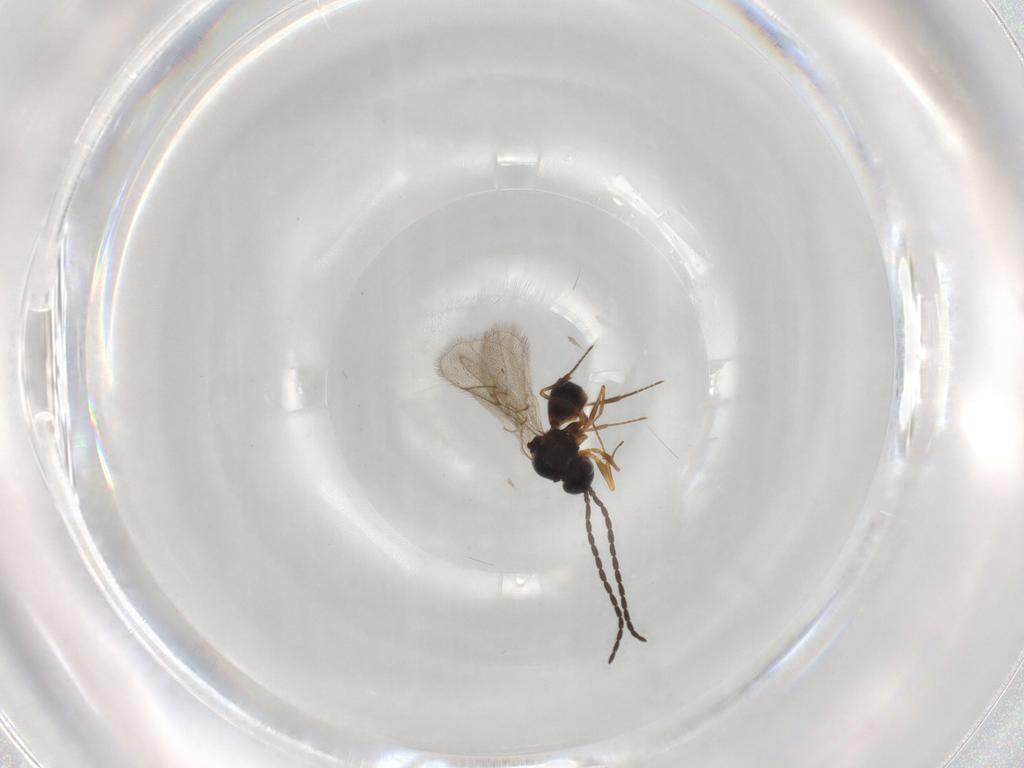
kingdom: Animalia
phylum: Arthropoda
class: Insecta
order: Hymenoptera
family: Figitidae
